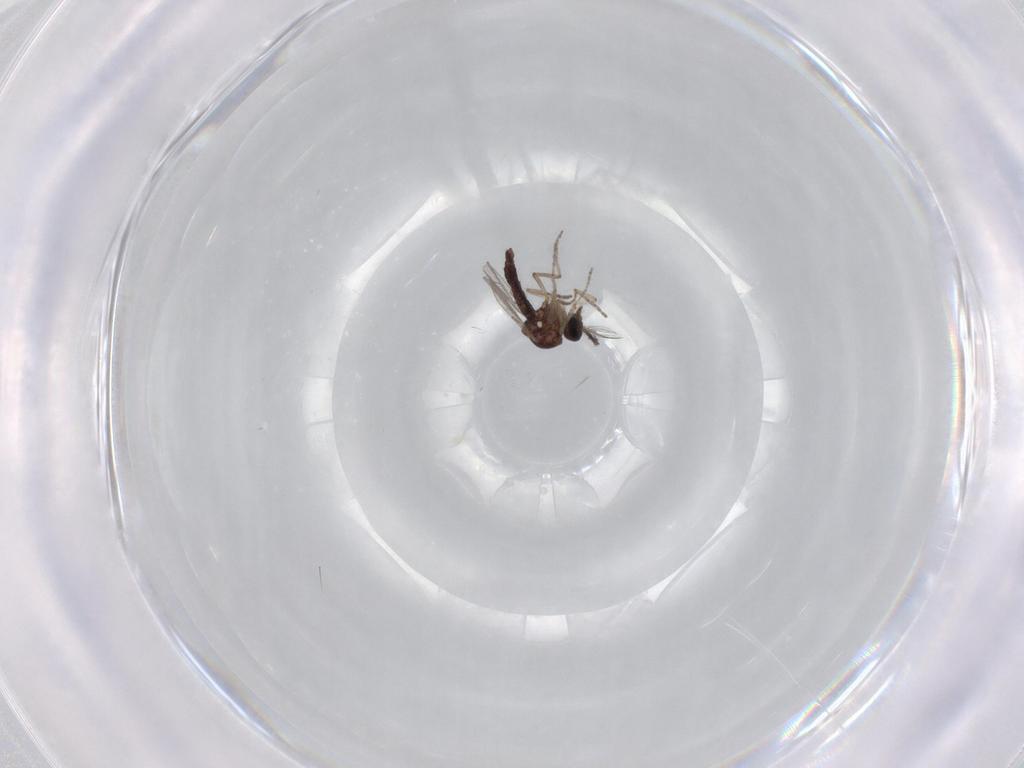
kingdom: Animalia
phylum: Arthropoda
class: Insecta
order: Diptera
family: Ceratopogonidae
